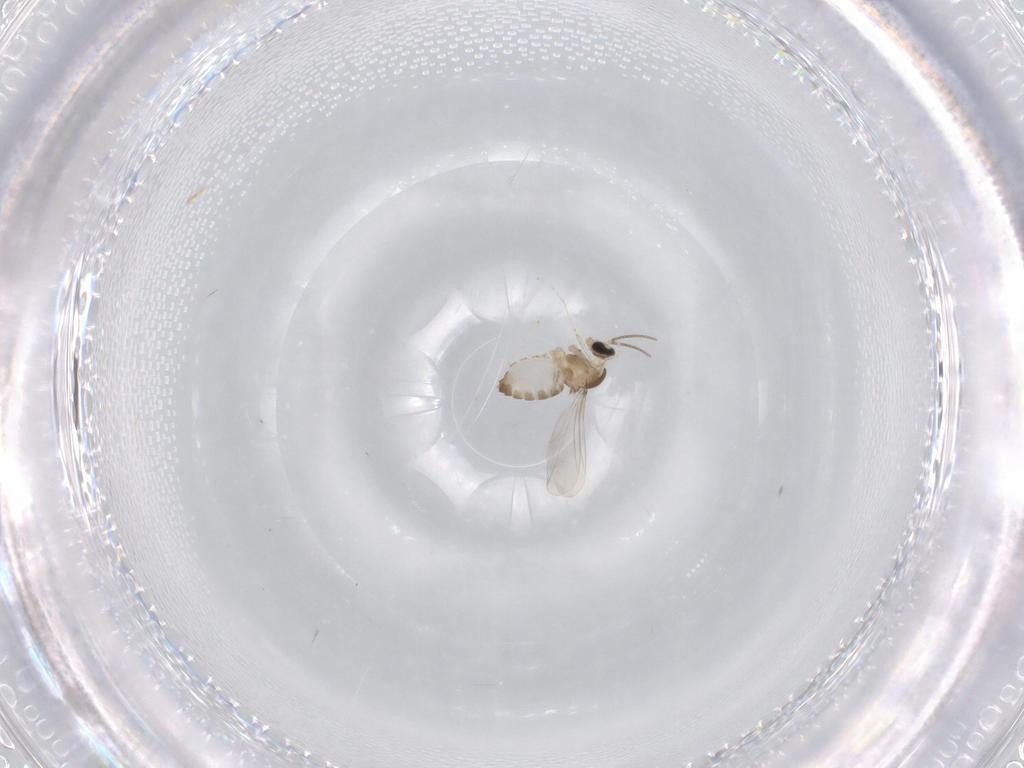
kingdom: Animalia
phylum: Arthropoda
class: Insecta
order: Diptera
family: Cecidomyiidae
